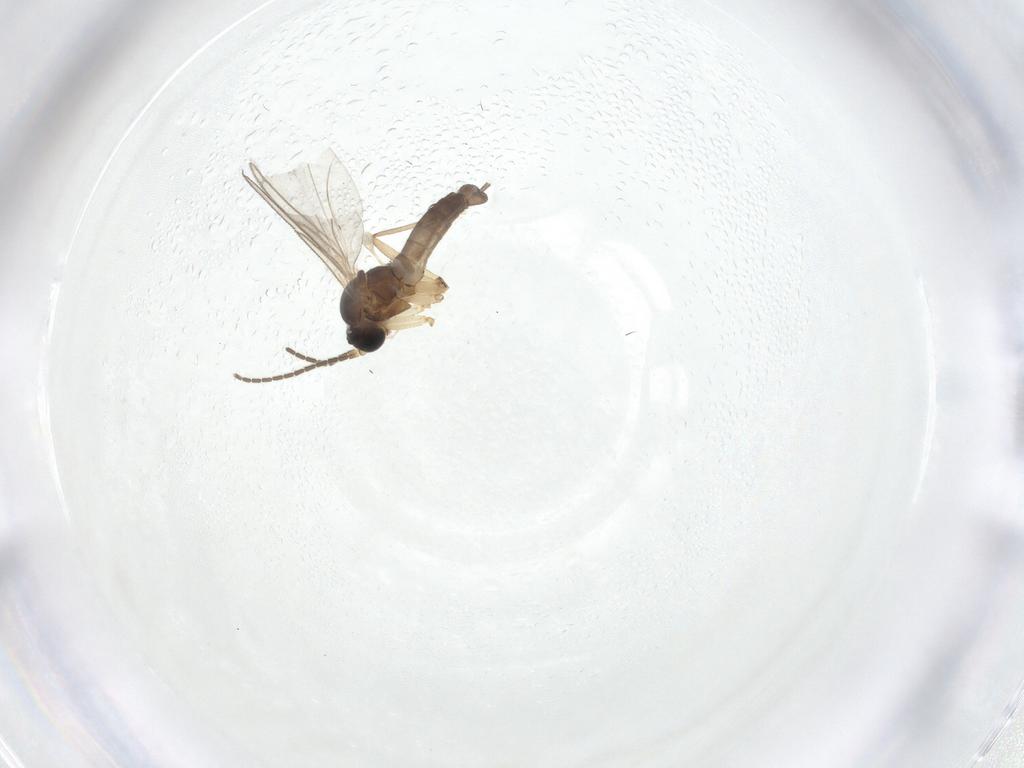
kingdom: Animalia
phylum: Arthropoda
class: Insecta
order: Diptera
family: Sciaridae
